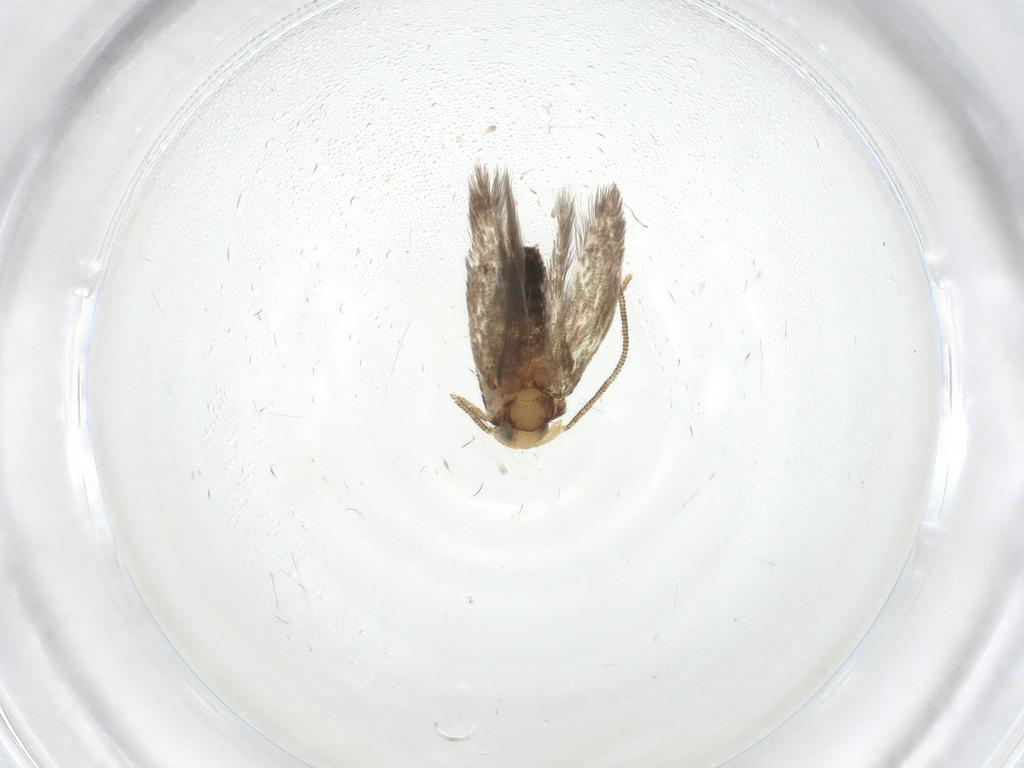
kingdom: Animalia
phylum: Arthropoda
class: Insecta
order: Lepidoptera
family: Nepticulidae
